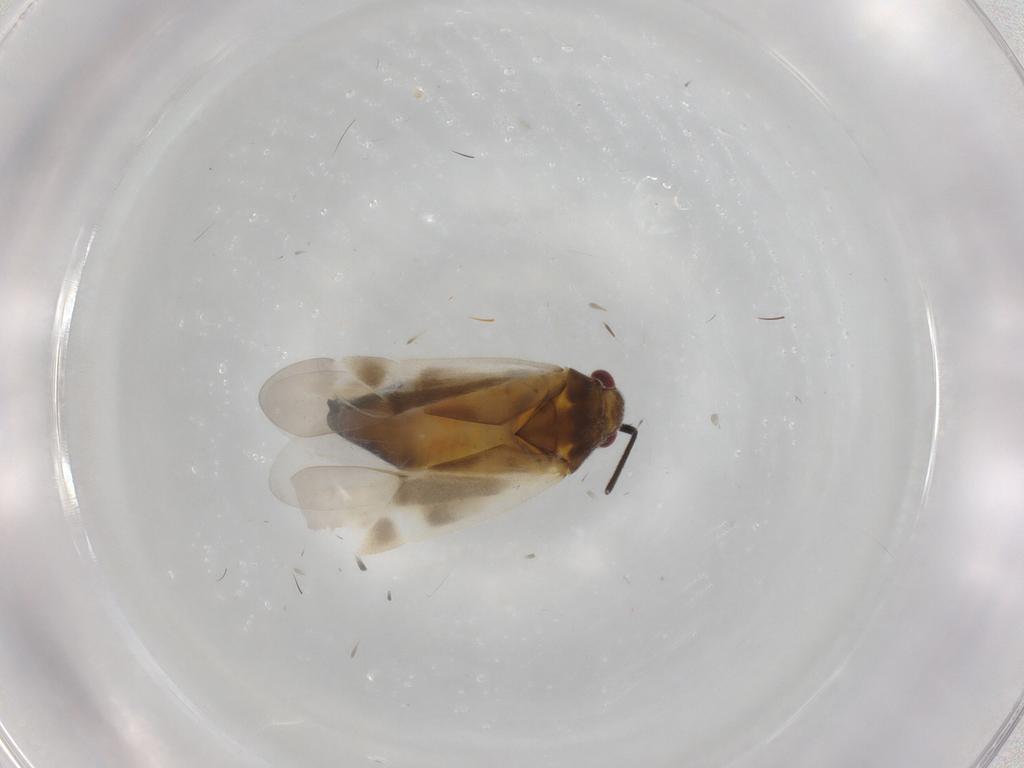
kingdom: Animalia
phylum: Arthropoda
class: Insecta
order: Hemiptera
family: Miridae
